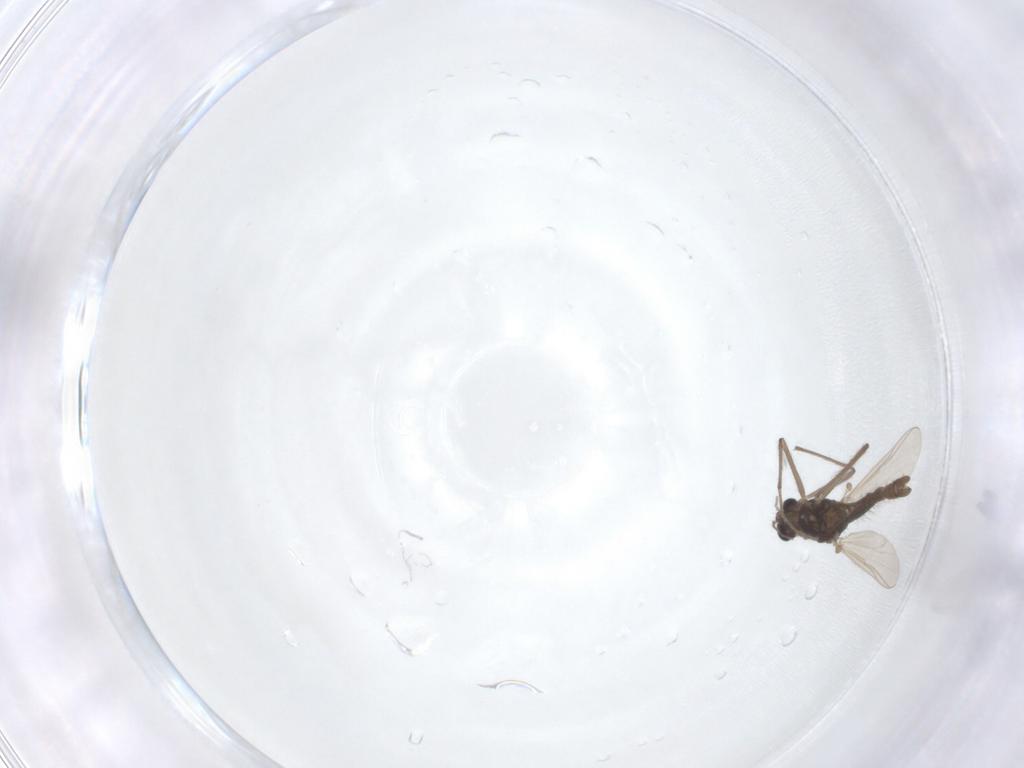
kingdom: Animalia
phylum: Arthropoda
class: Insecta
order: Diptera
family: Chironomidae
